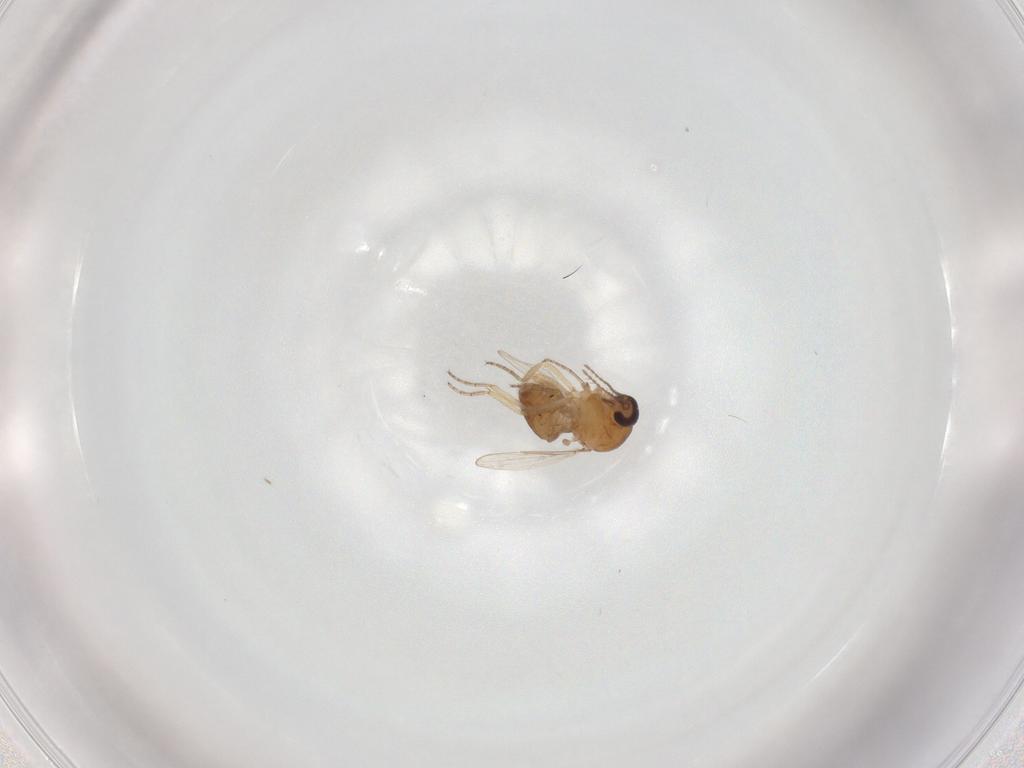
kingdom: Animalia
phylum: Arthropoda
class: Insecta
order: Diptera
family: Ceratopogonidae
